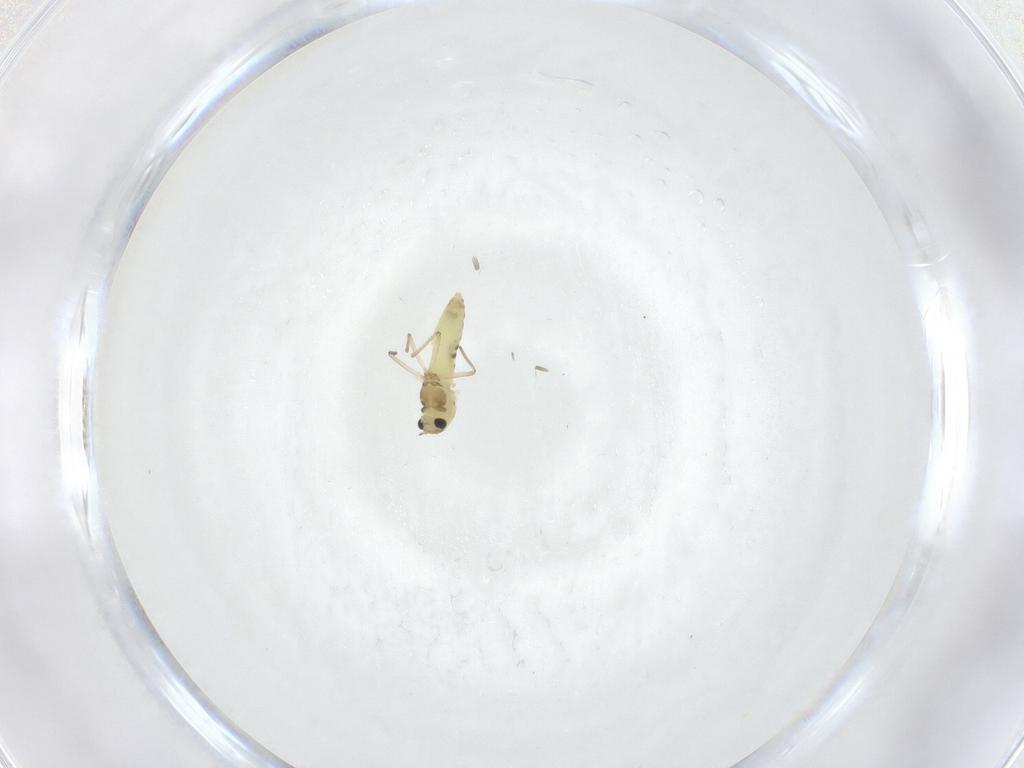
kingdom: Animalia
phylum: Arthropoda
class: Insecta
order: Diptera
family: Chironomidae
